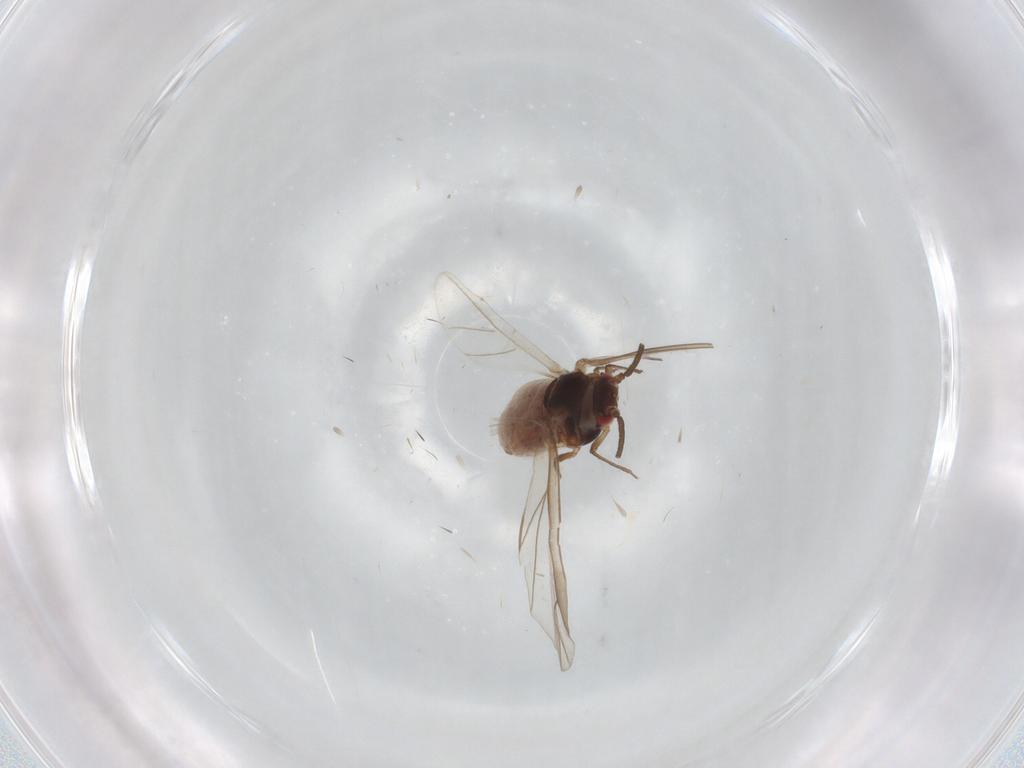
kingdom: Animalia
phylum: Arthropoda
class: Insecta
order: Hemiptera
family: Aphididae
